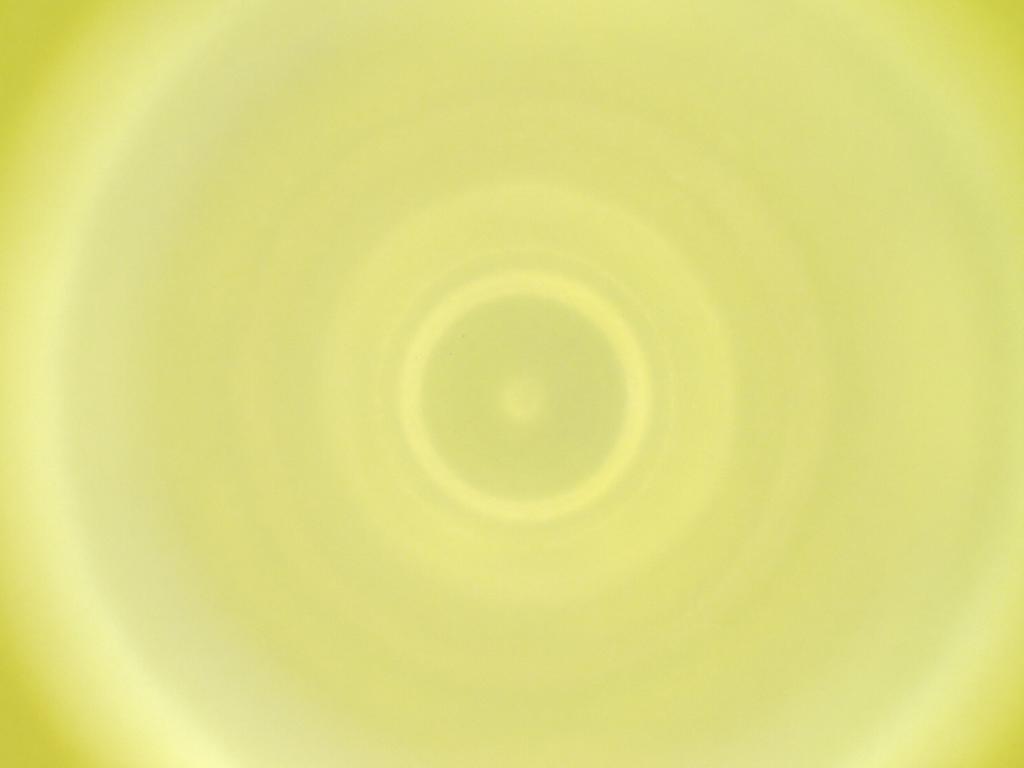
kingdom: Animalia
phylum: Arthropoda
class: Insecta
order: Diptera
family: Cecidomyiidae
